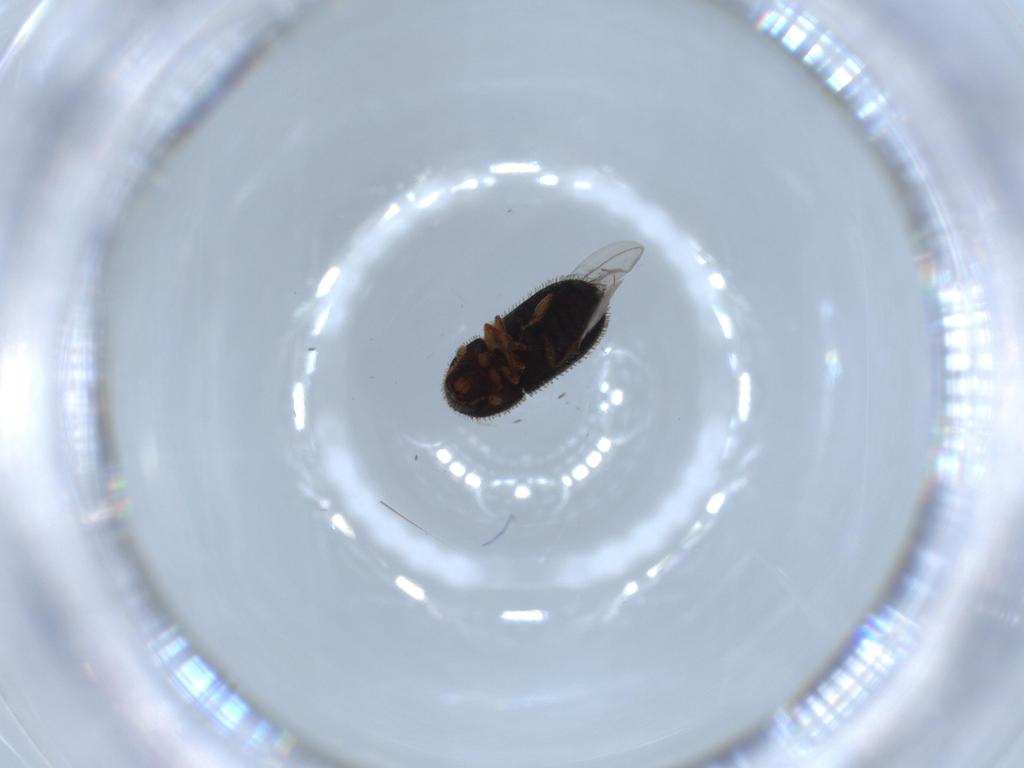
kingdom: Animalia
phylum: Arthropoda
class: Insecta
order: Coleoptera
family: Curculionidae
